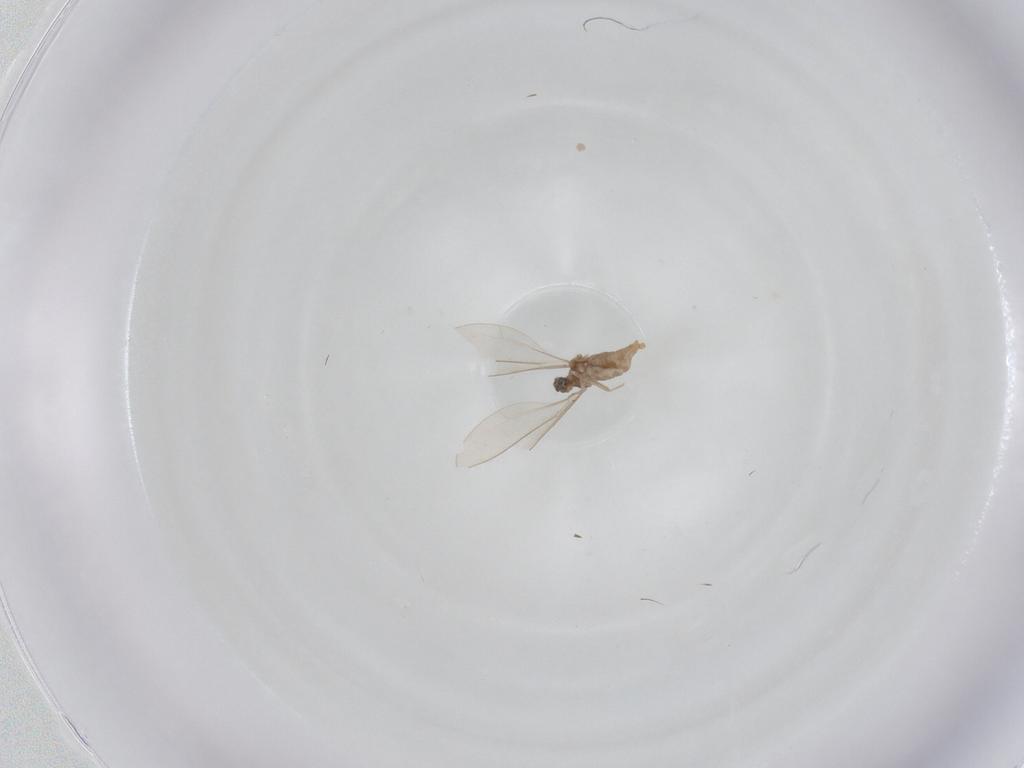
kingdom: Animalia
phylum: Arthropoda
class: Insecta
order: Diptera
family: Cecidomyiidae
